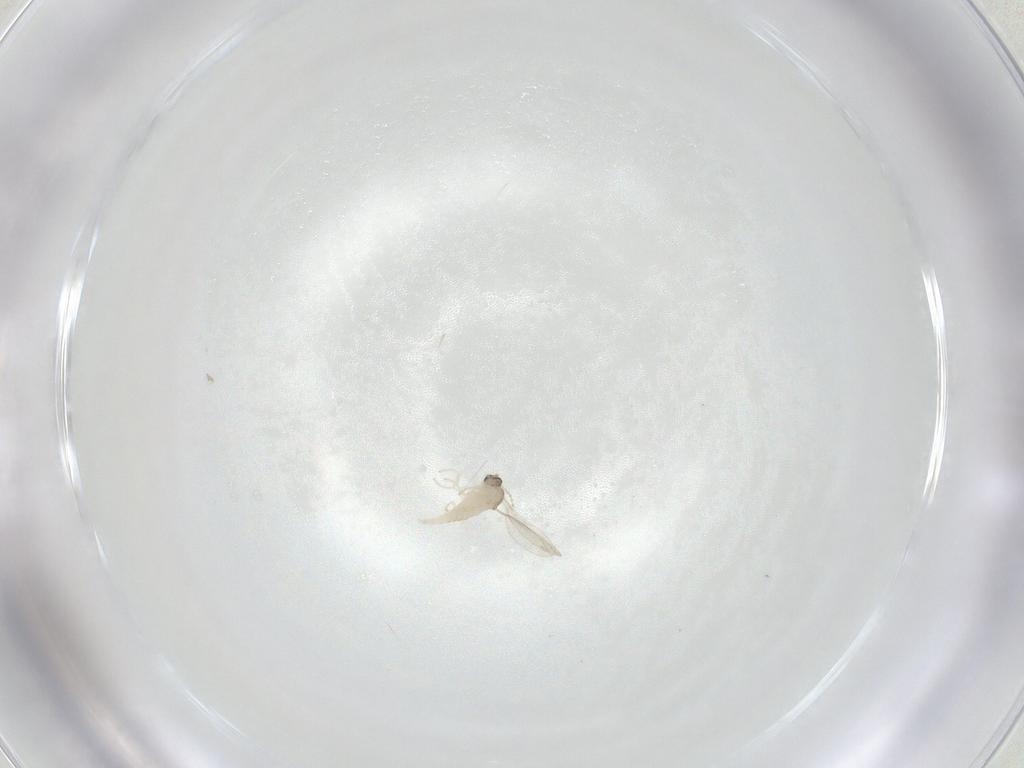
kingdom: Animalia
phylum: Arthropoda
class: Insecta
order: Diptera
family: Cecidomyiidae
